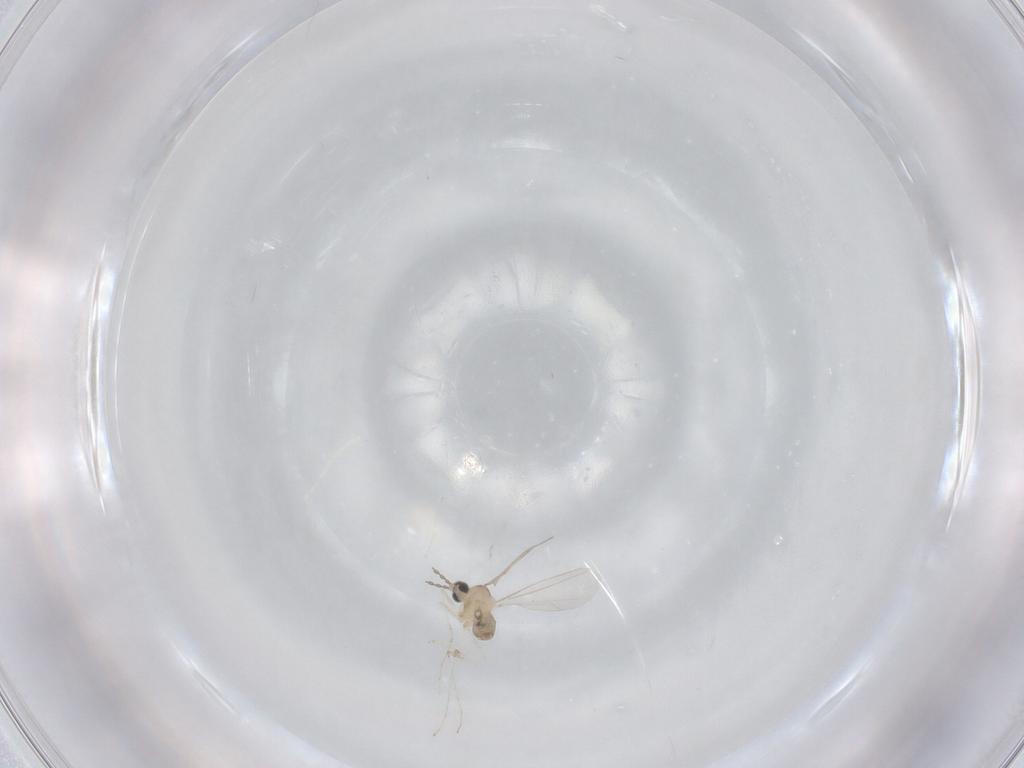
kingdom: Animalia
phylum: Arthropoda
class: Insecta
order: Diptera
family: Cecidomyiidae
